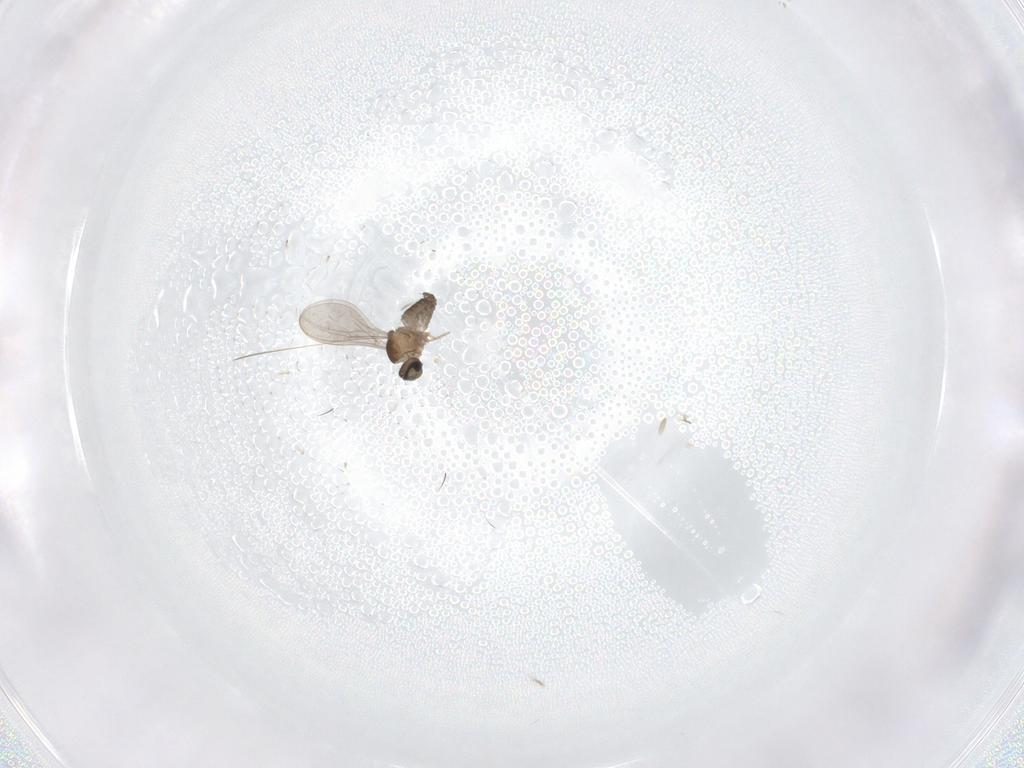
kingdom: Animalia
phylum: Arthropoda
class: Insecta
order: Diptera
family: Cecidomyiidae
